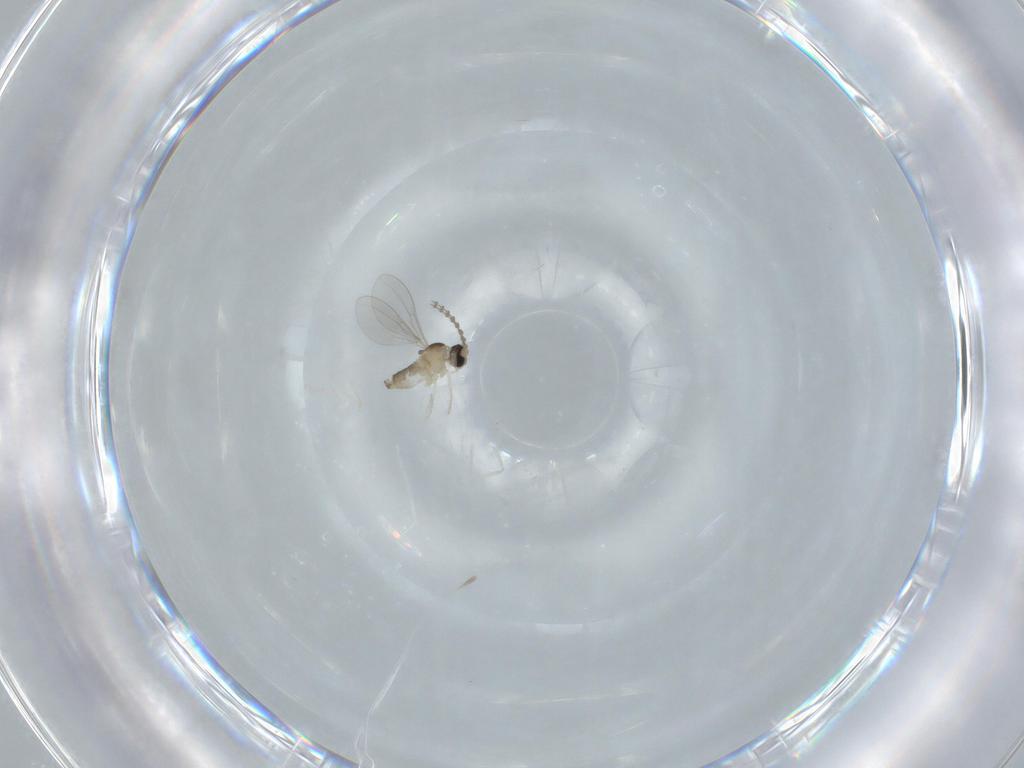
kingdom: Animalia
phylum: Arthropoda
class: Insecta
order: Diptera
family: Cecidomyiidae
